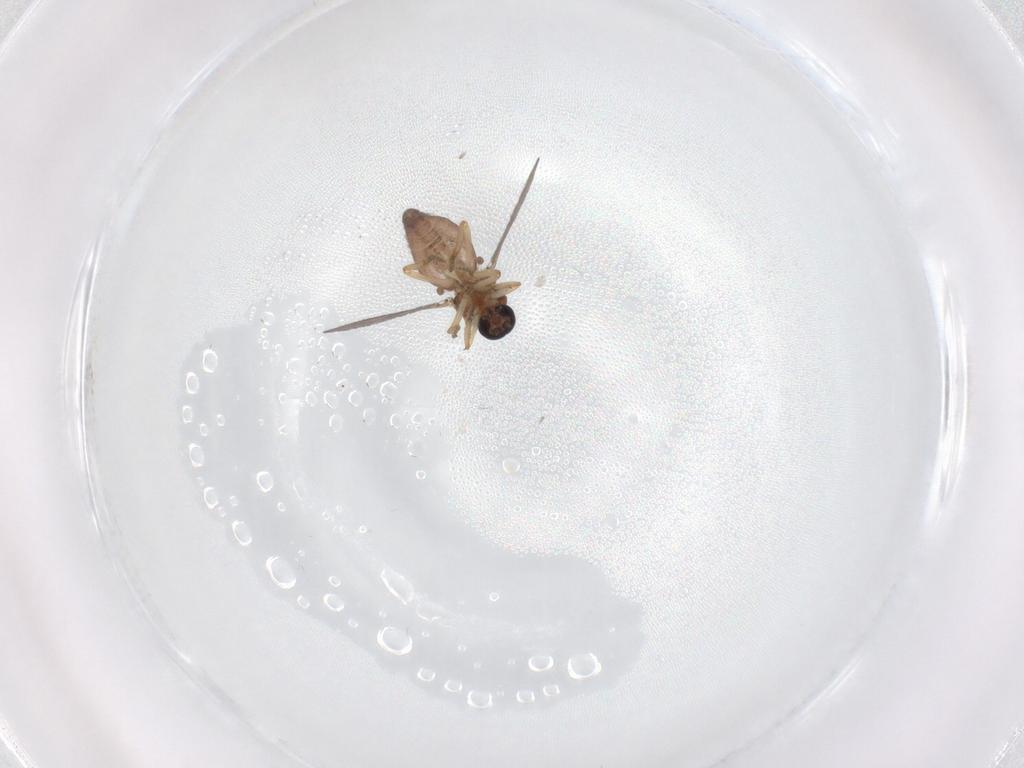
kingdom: Animalia
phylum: Arthropoda
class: Insecta
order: Diptera
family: Ceratopogonidae
